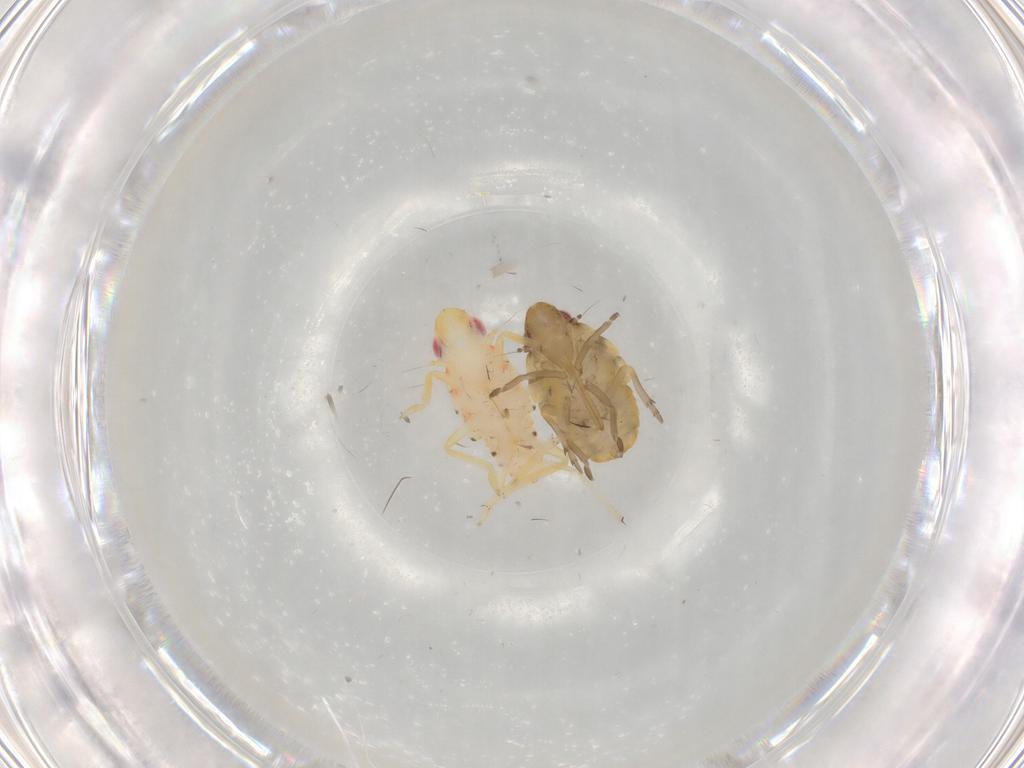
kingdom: Animalia
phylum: Arthropoda
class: Insecta
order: Hemiptera
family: Tropiduchidae
